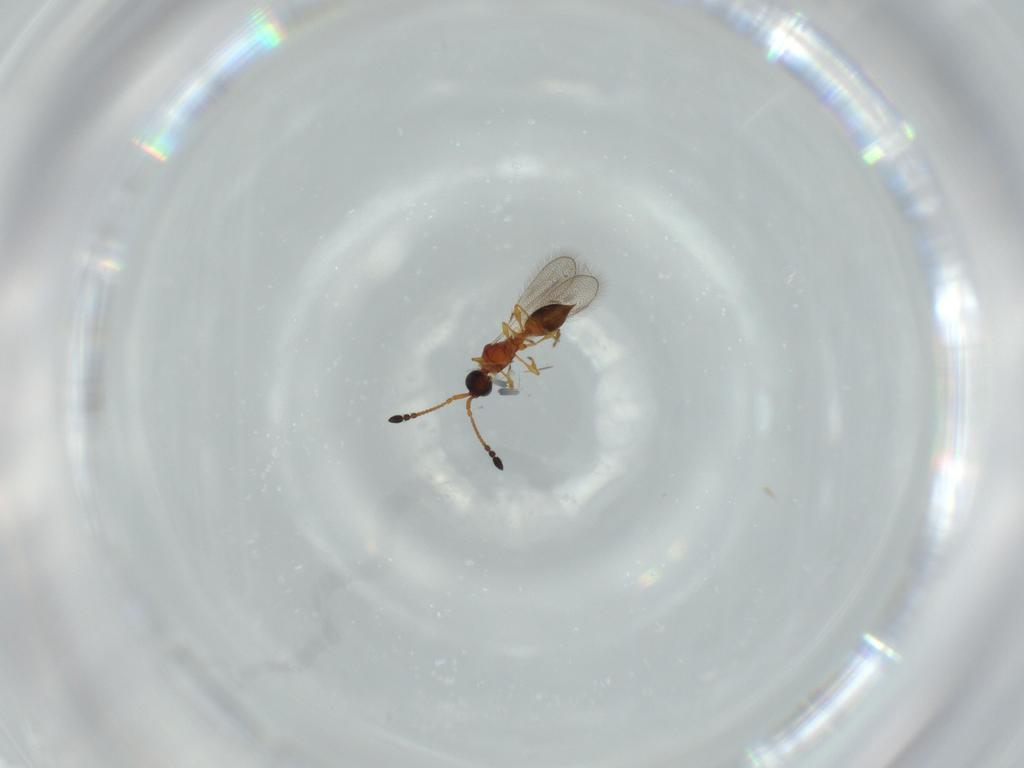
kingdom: Animalia
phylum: Arthropoda
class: Insecta
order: Hymenoptera
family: Diapriidae
